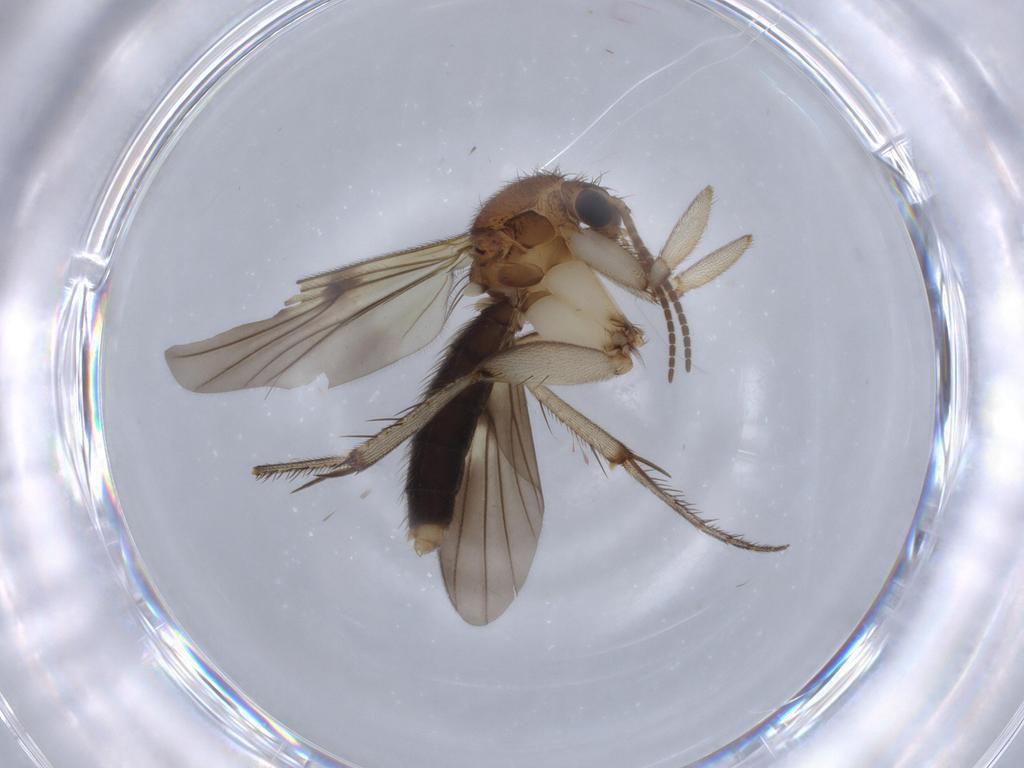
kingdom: Animalia
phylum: Arthropoda
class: Insecta
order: Diptera
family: Mycetophilidae
